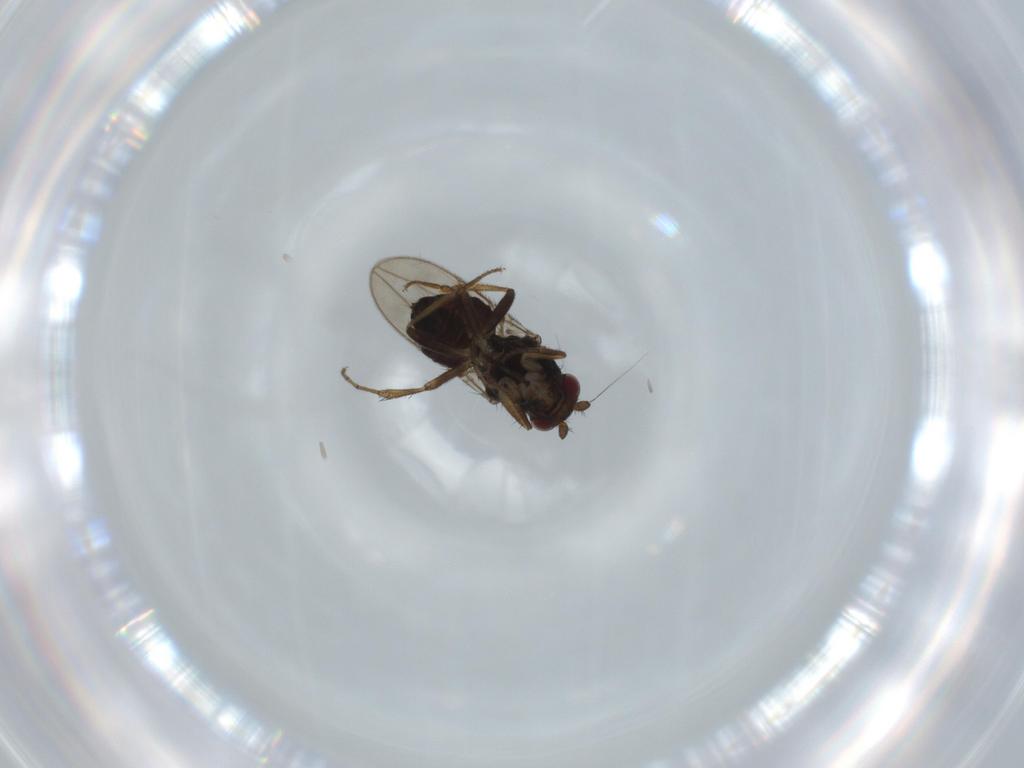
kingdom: Animalia
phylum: Arthropoda
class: Insecta
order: Diptera
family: Sphaeroceridae
